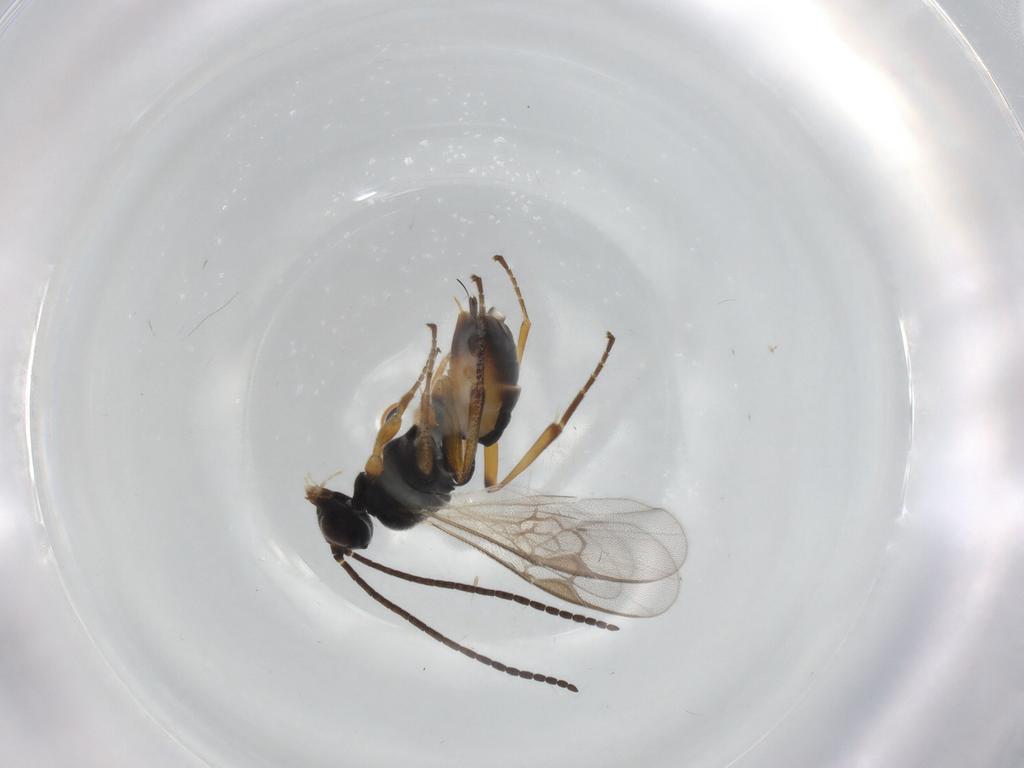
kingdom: Animalia
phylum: Arthropoda
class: Insecta
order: Hymenoptera
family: Braconidae
